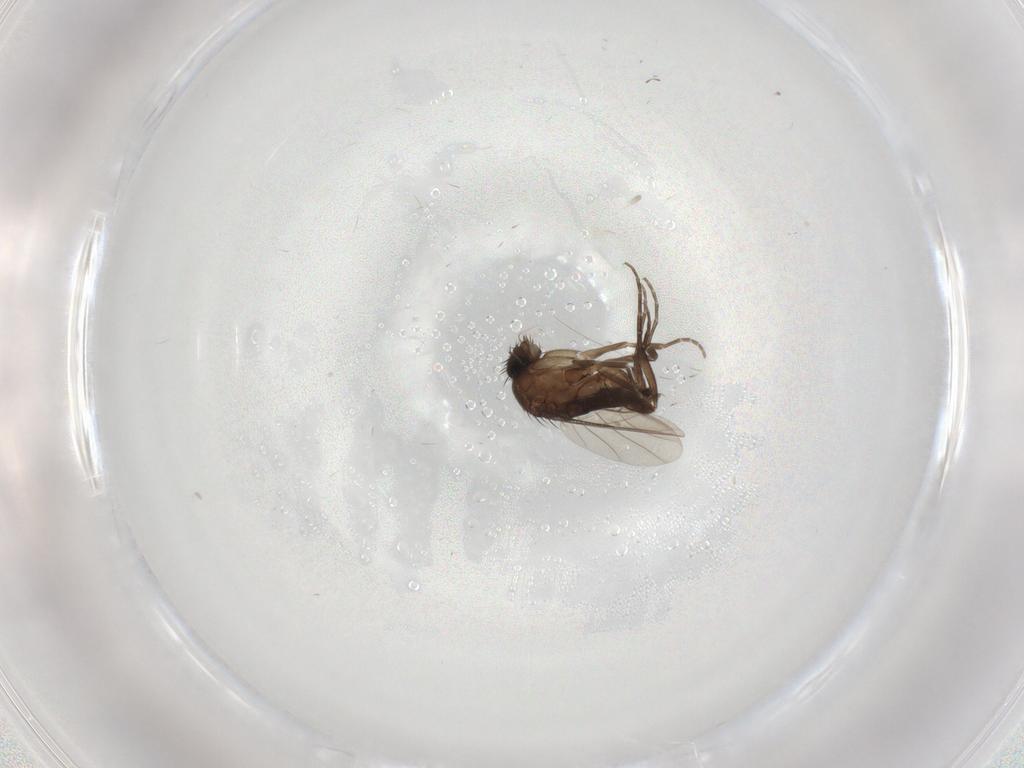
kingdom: Animalia
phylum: Arthropoda
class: Insecta
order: Diptera
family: Phoridae
